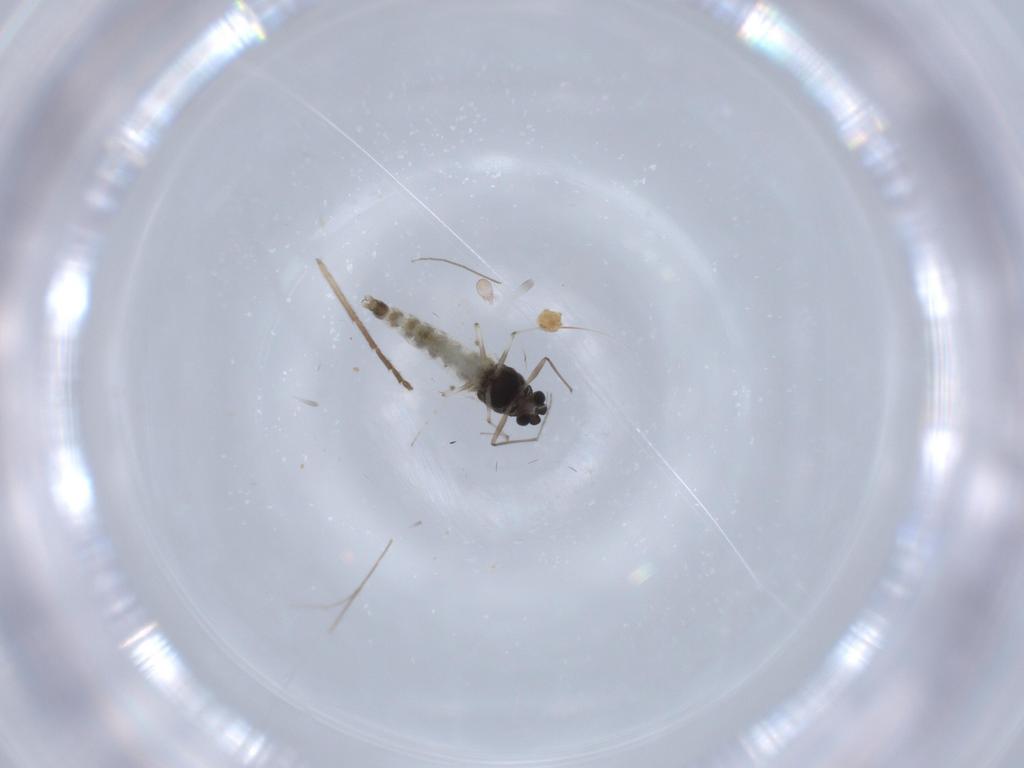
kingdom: Animalia
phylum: Arthropoda
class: Insecta
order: Diptera
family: Chironomidae
